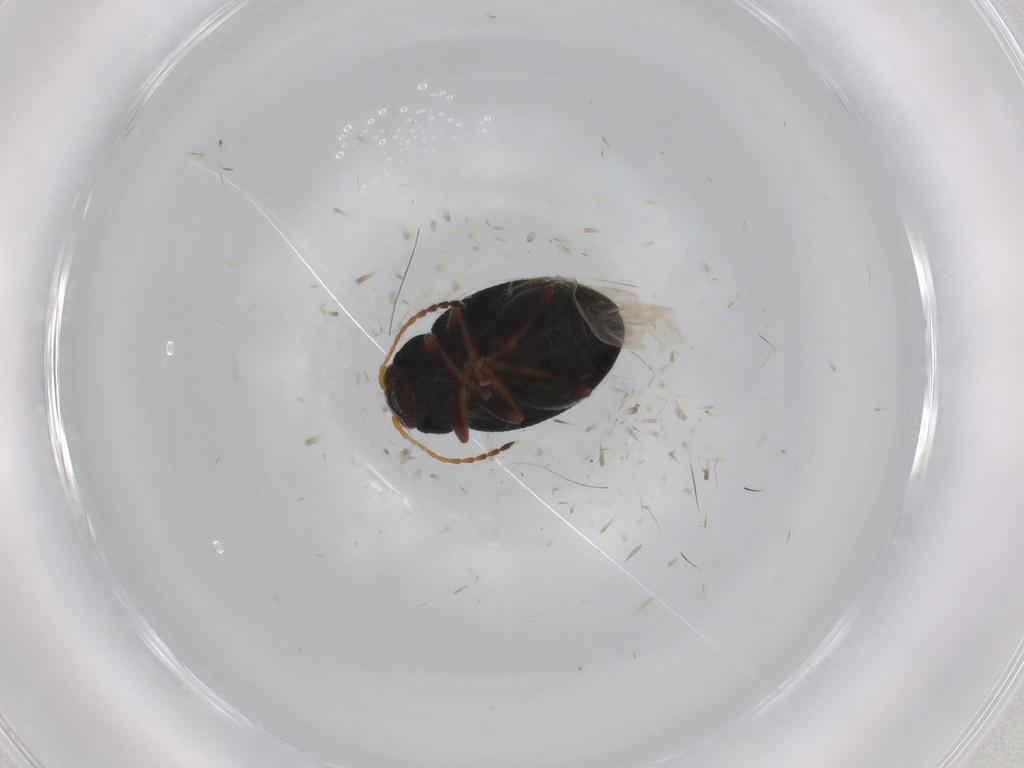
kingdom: Animalia
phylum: Arthropoda
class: Insecta
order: Coleoptera
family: Chrysomelidae
